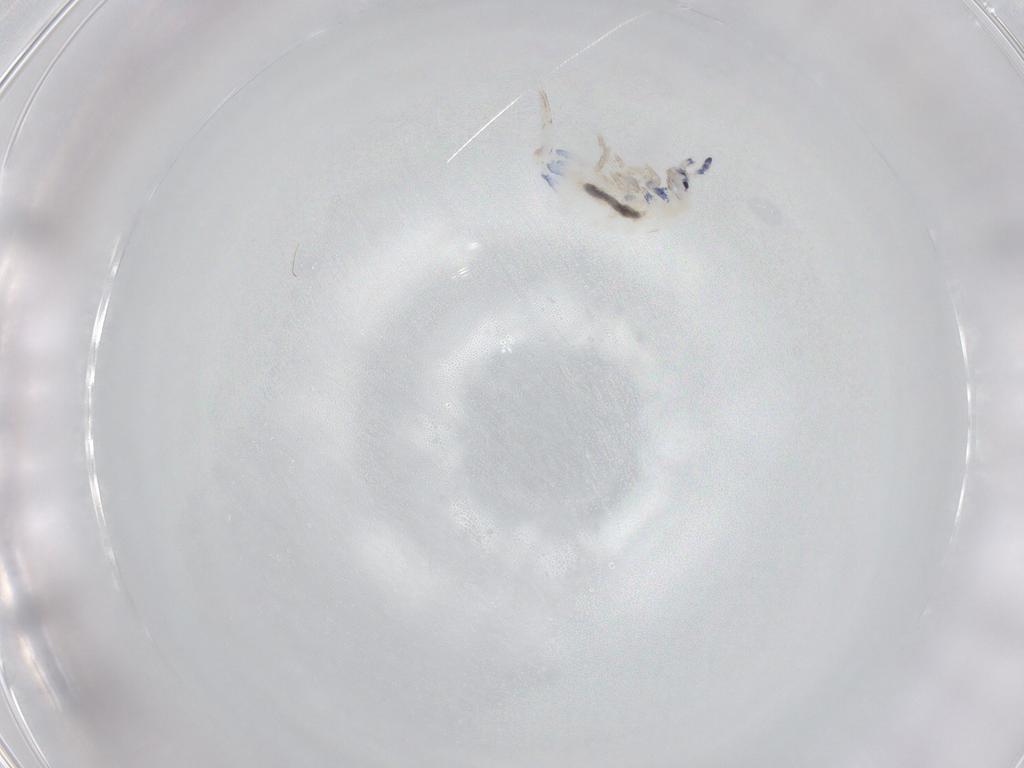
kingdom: Animalia
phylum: Arthropoda
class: Collembola
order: Entomobryomorpha
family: Entomobryidae
